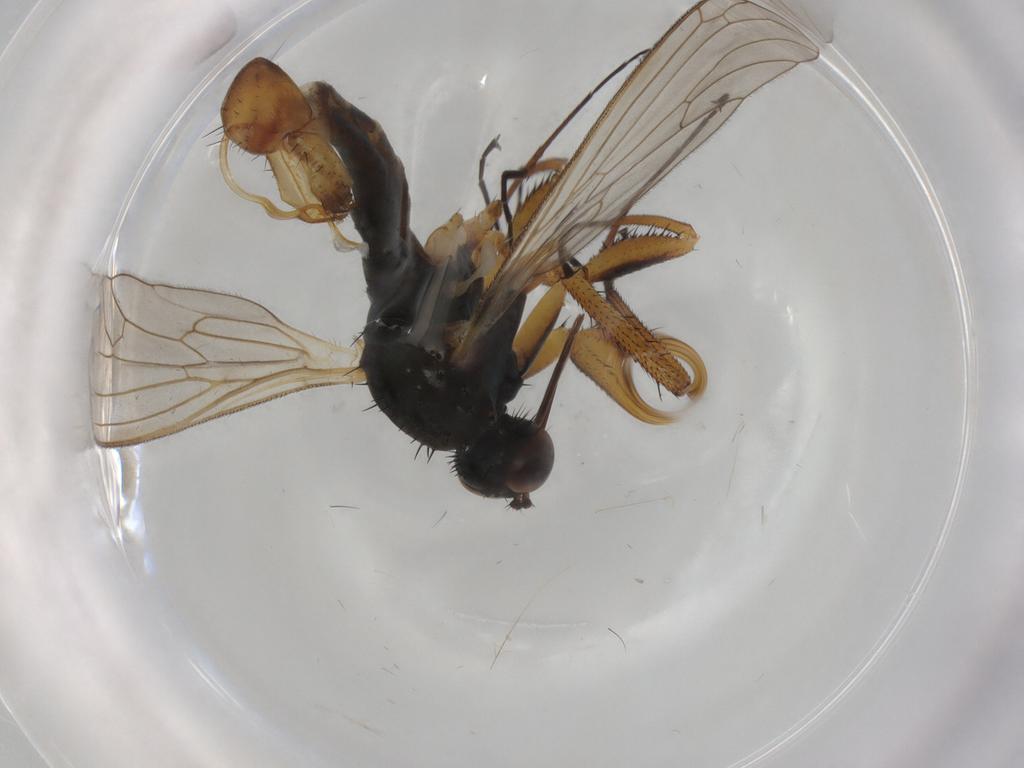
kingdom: Animalia
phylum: Arthropoda
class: Insecta
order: Diptera
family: Empididae
